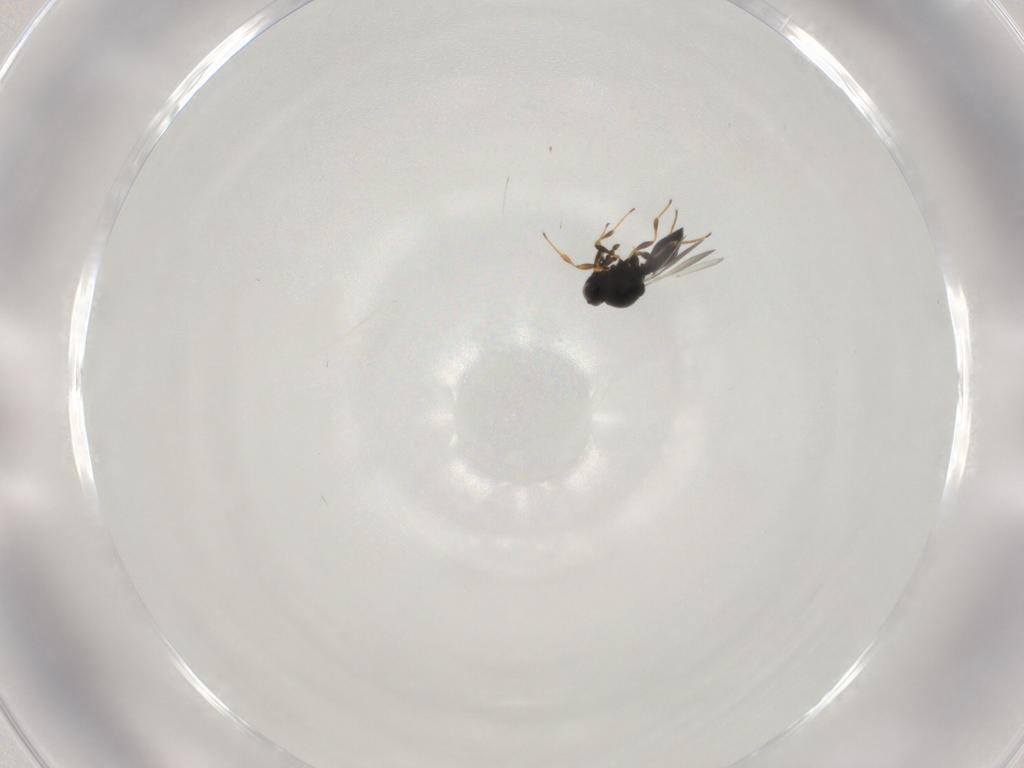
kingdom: Animalia
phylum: Arthropoda
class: Insecta
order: Hymenoptera
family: Platygastridae
